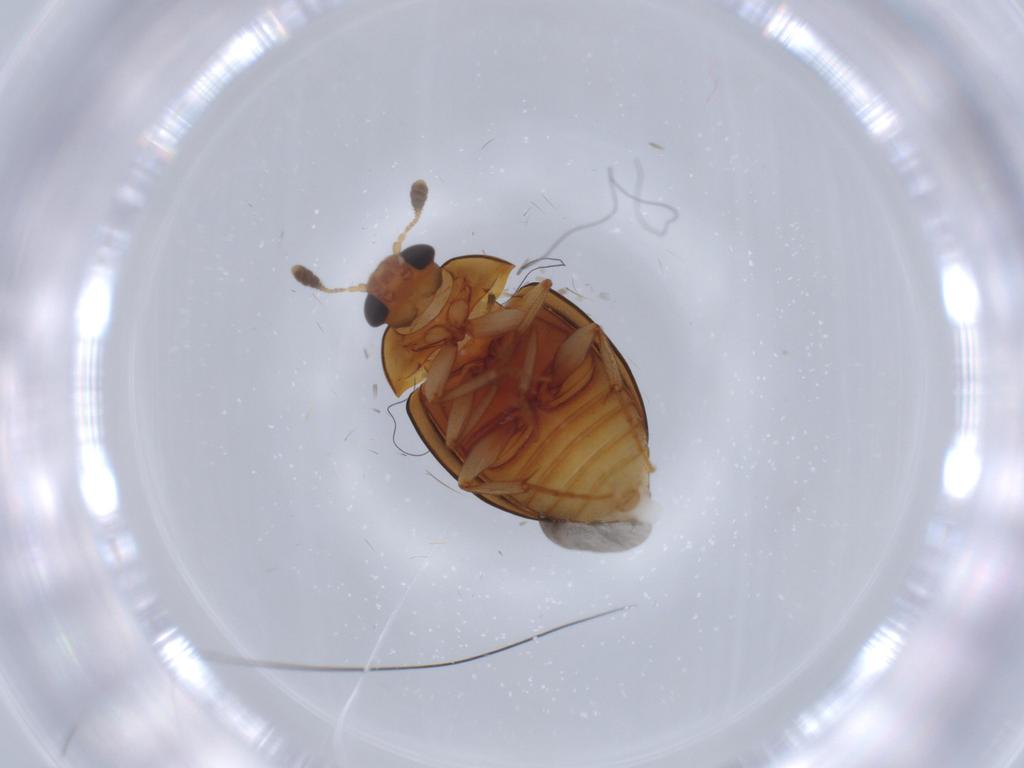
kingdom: Animalia
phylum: Arthropoda
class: Insecta
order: Coleoptera
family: Nitidulidae
